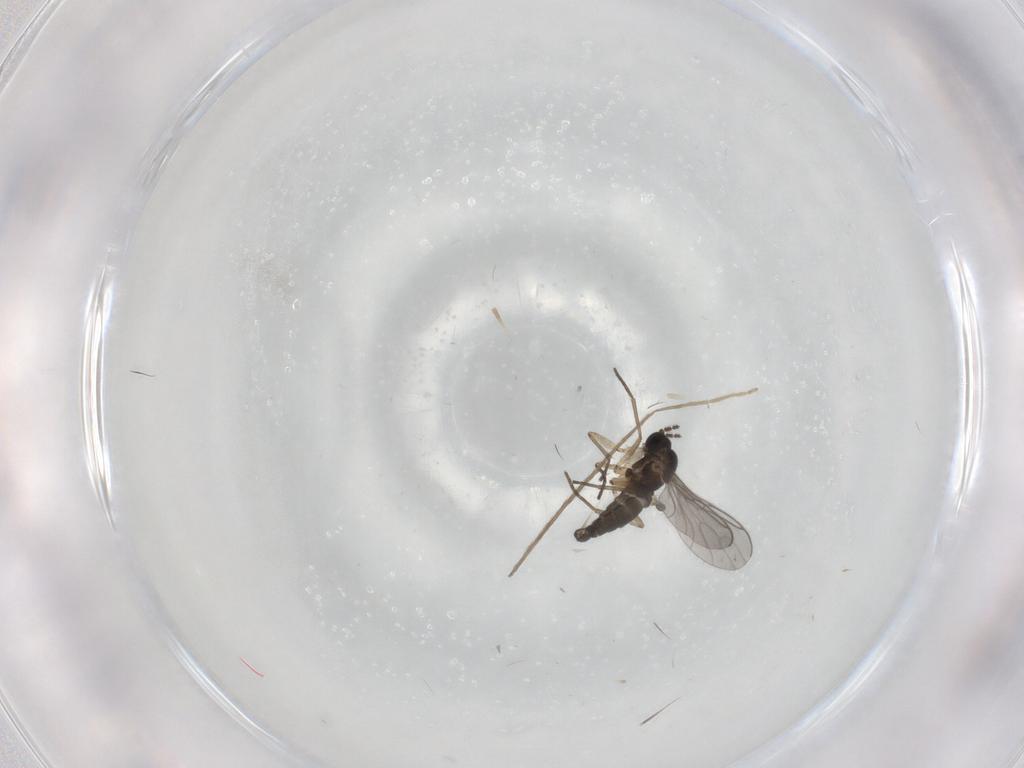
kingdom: Animalia
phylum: Arthropoda
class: Insecta
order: Diptera
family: Cecidomyiidae
